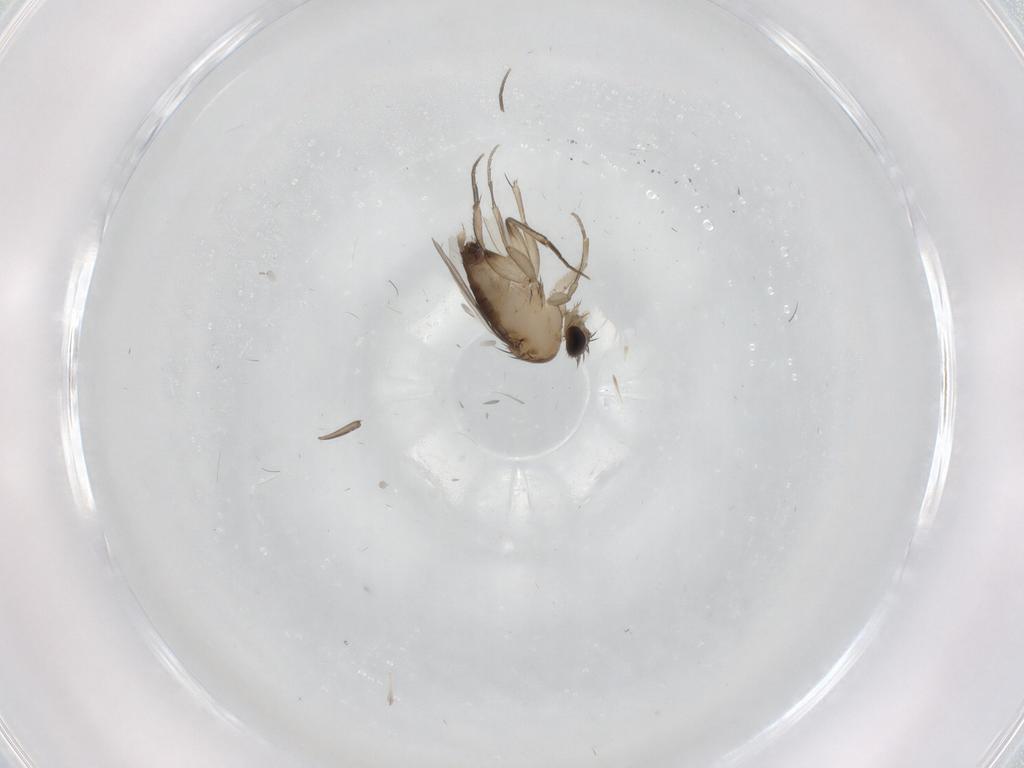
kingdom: Animalia
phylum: Arthropoda
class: Insecta
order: Diptera
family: Phoridae
